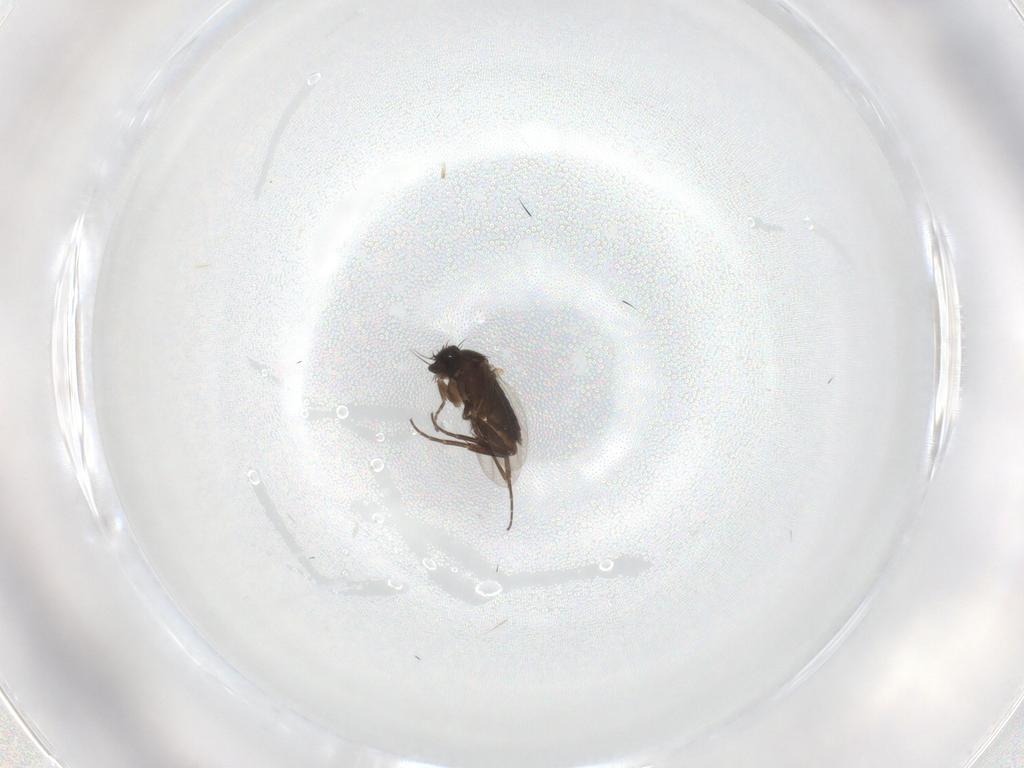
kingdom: Animalia
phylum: Arthropoda
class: Insecta
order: Diptera
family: Phoridae
